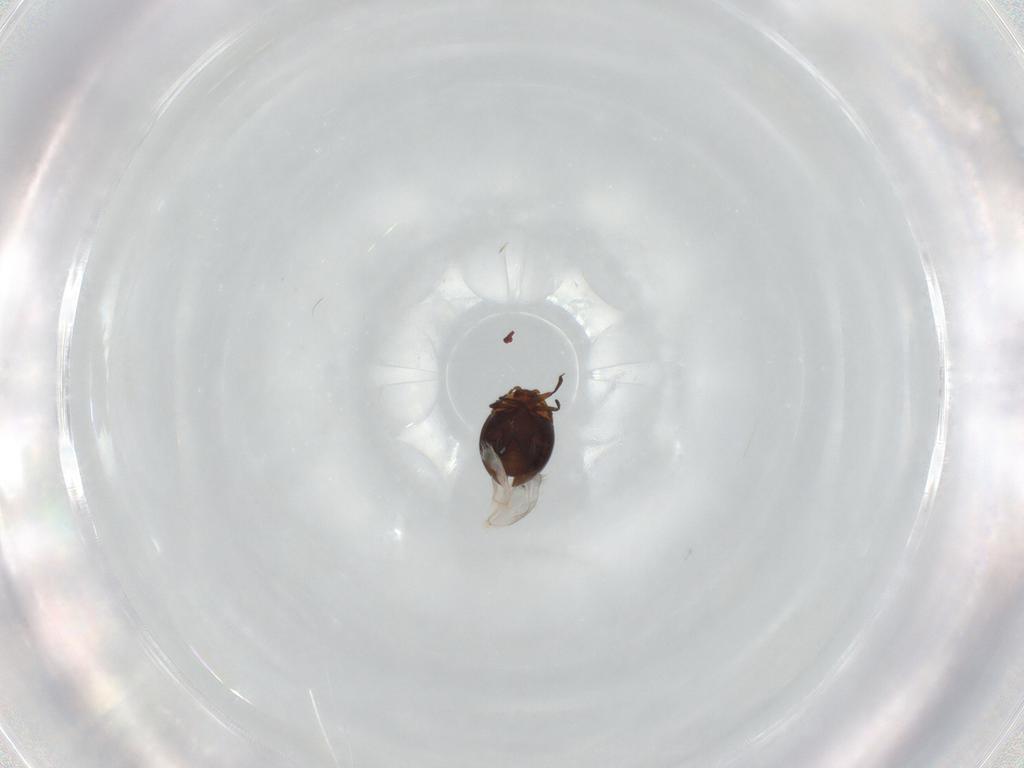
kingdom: Animalia
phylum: Arthropoda
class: Insecta
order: Coleoptera
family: Corylophidae
